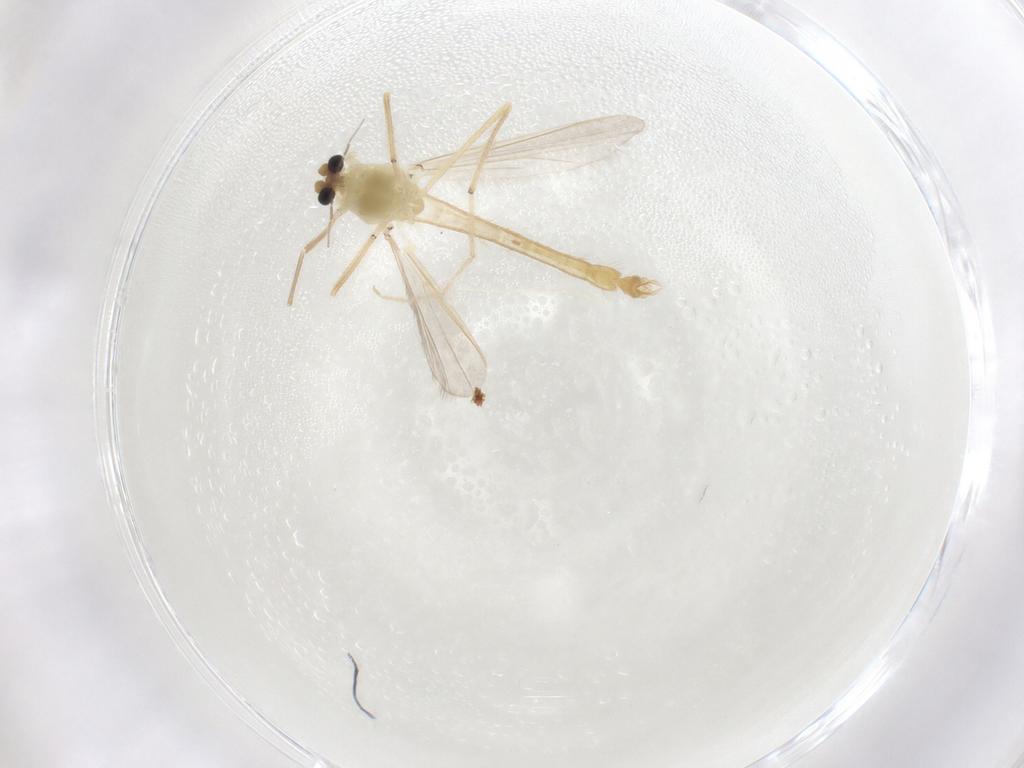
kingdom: Animalia
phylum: Arthropoda
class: Insecta
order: Diptera
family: Chironomidae
